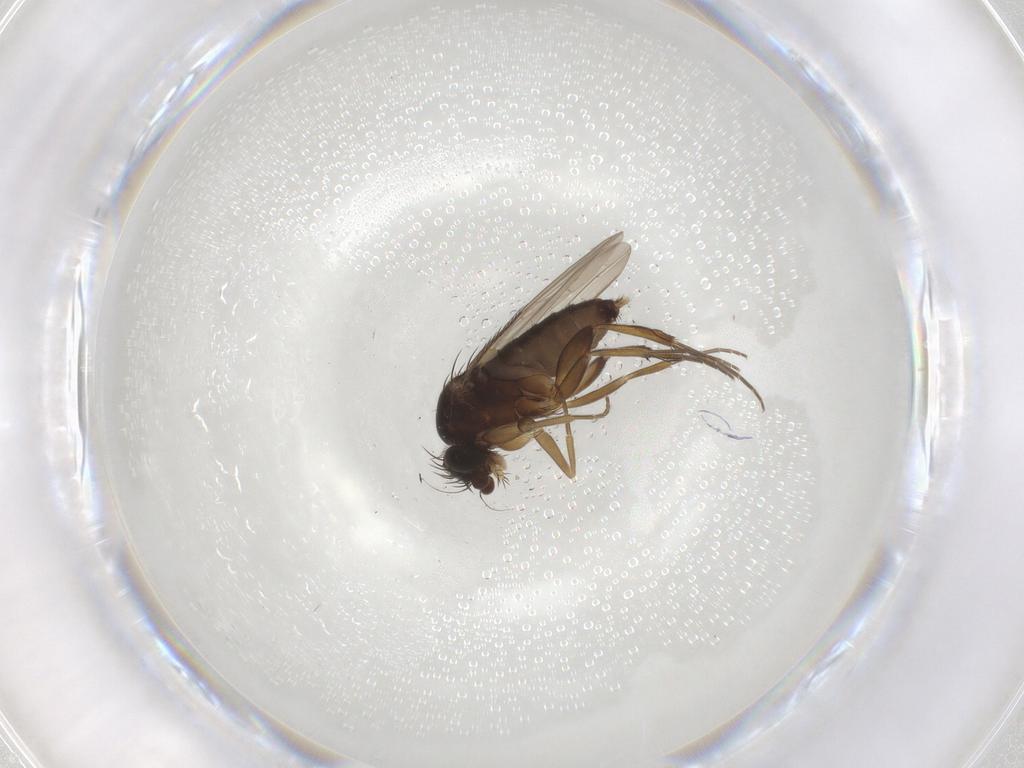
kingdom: Animalia
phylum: Arthropoda
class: Insecta
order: Diptera
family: Phoridae
